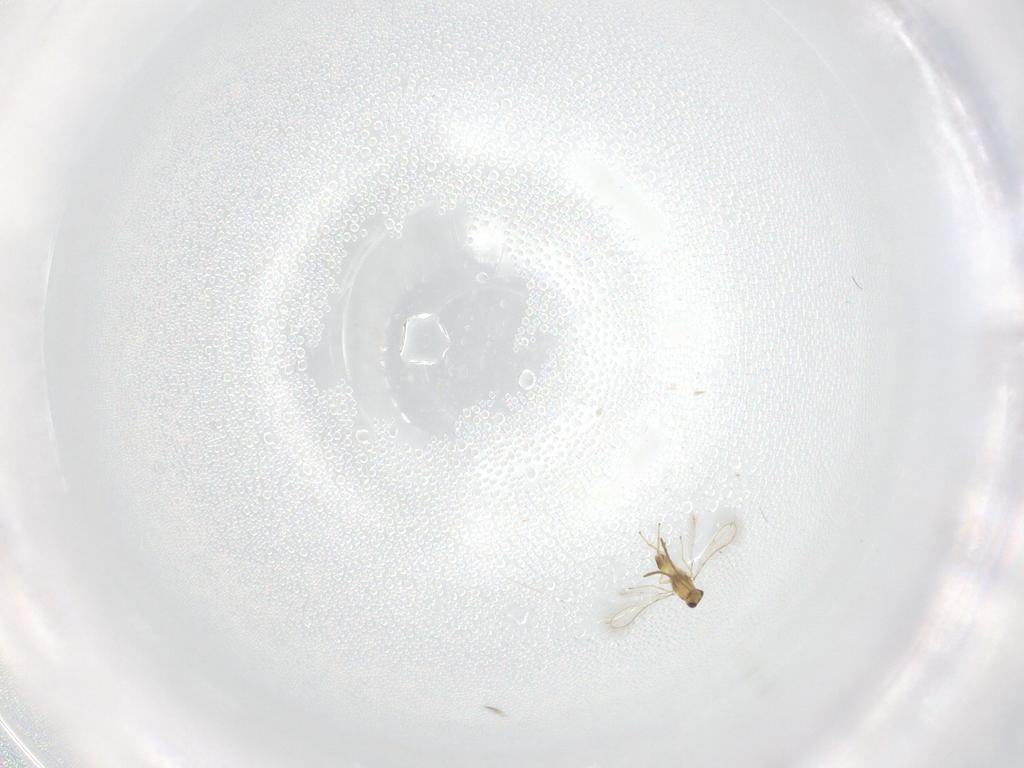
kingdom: Animalia
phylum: Arthropoda
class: Insecta
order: Hymenoptera
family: Mymaridae
